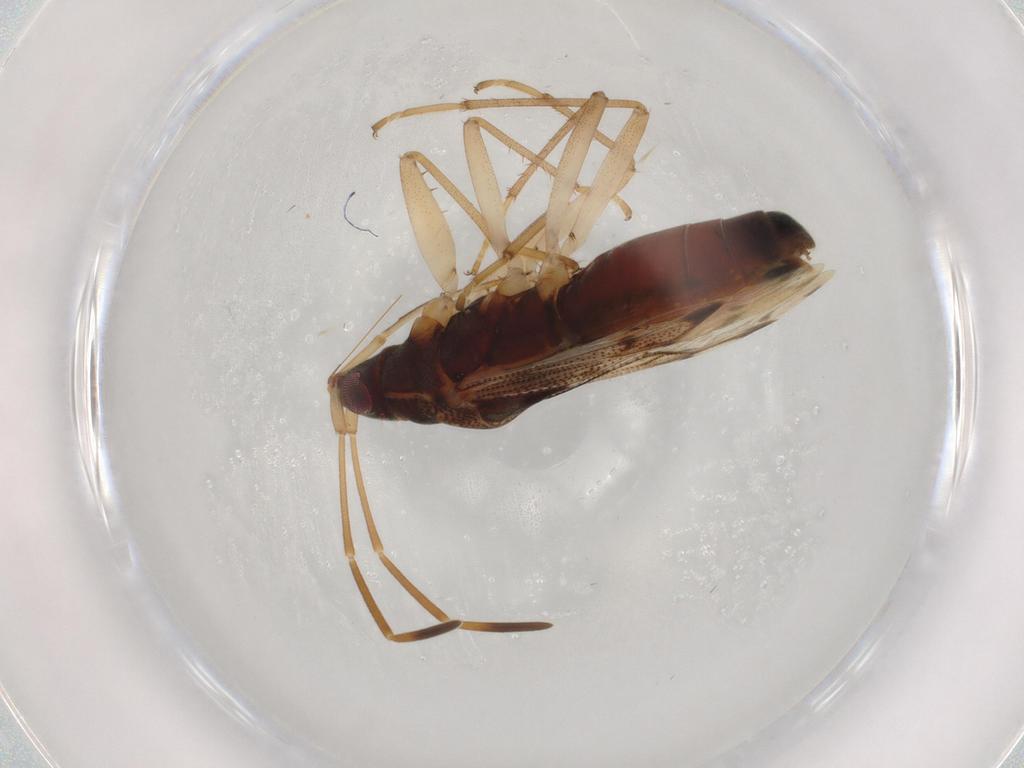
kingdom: Animalia
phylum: Arthropoda
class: Insecta
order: Hemiptera
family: Rhyparochromidae
